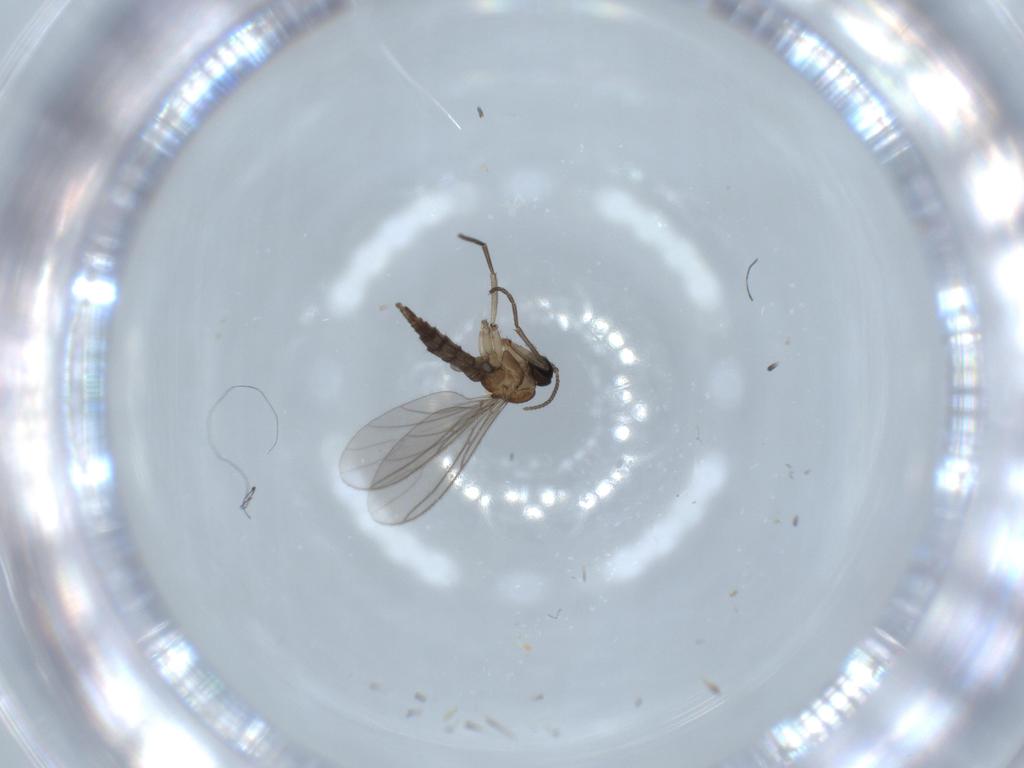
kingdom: Animalia
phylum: Arthropoda
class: Insecta
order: Diptera
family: Sciaridae
